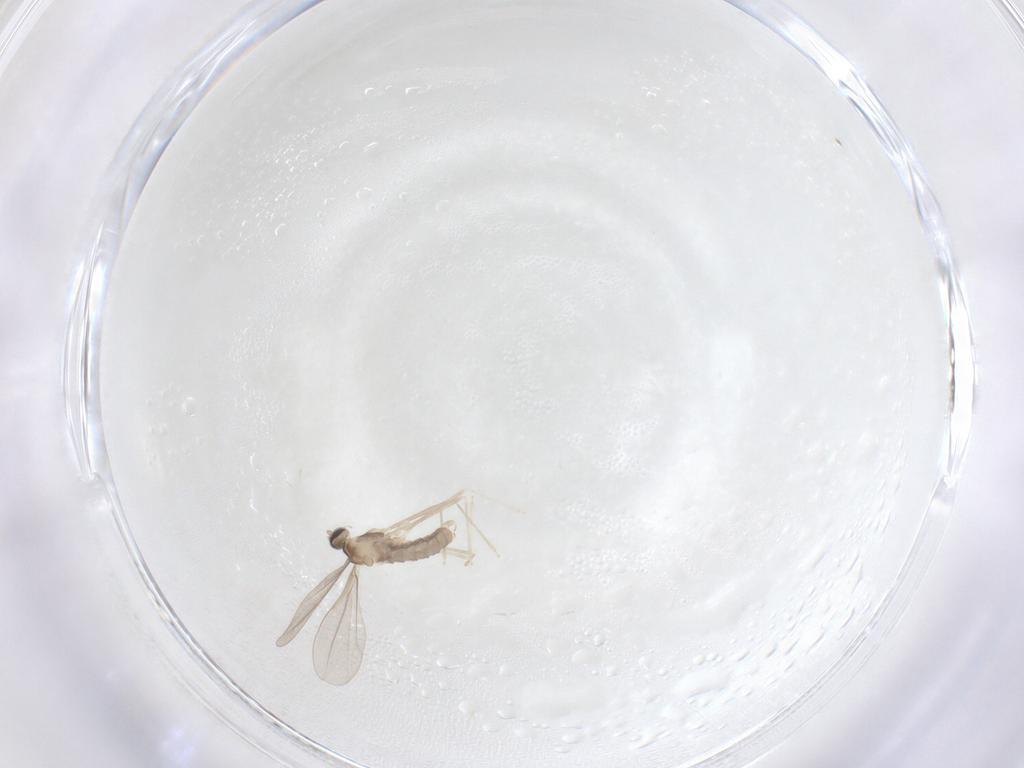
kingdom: Animalia
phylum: Arthropoda
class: Insecta
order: Diptera
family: Cecidomyiidae
